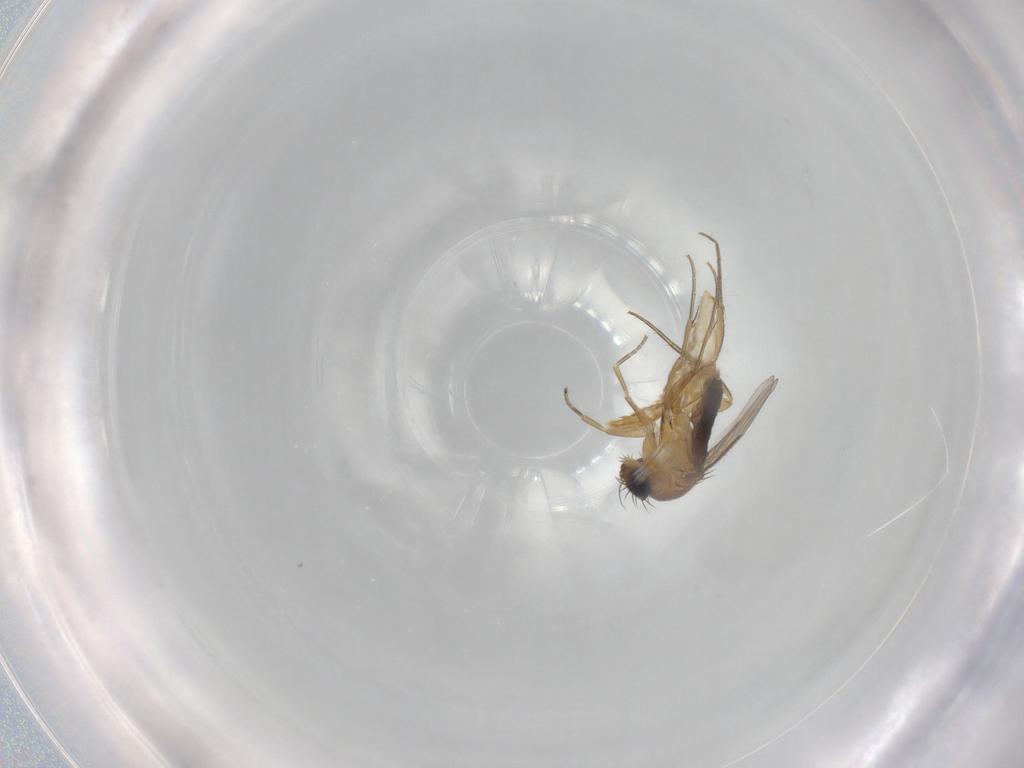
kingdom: Animalia
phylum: Arthropoda
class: Insecta
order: Diptera
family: Phoridae
